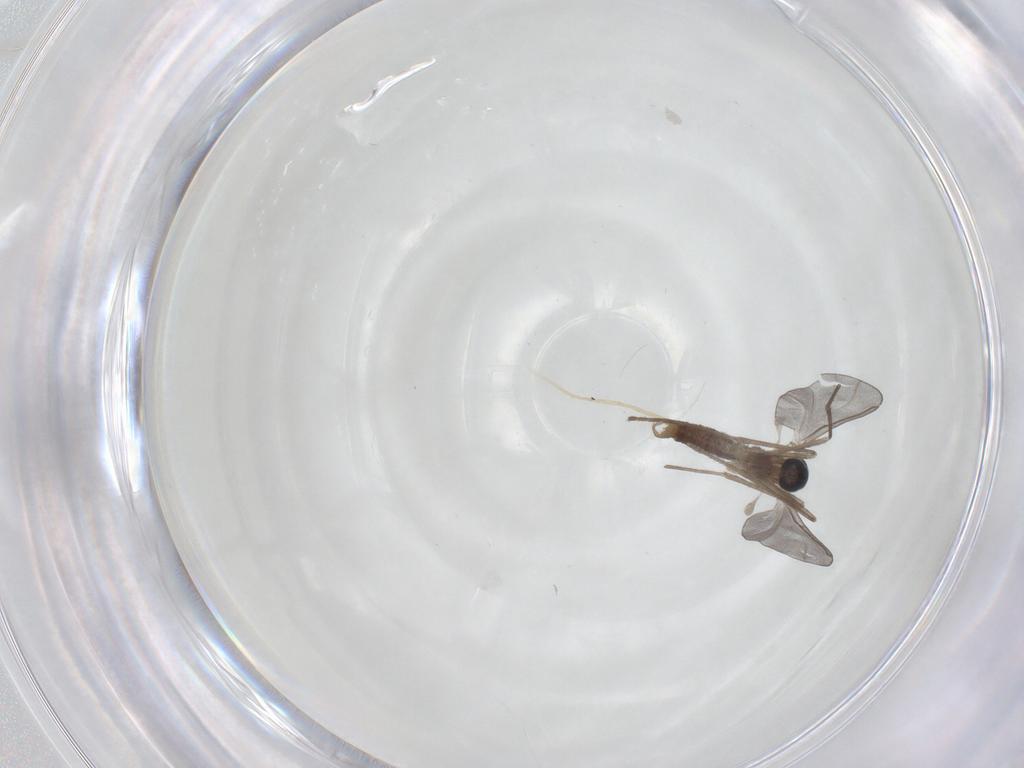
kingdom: Animalia
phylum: Arthropoda
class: Insecta
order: Diptera
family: Cecidomyiidae
